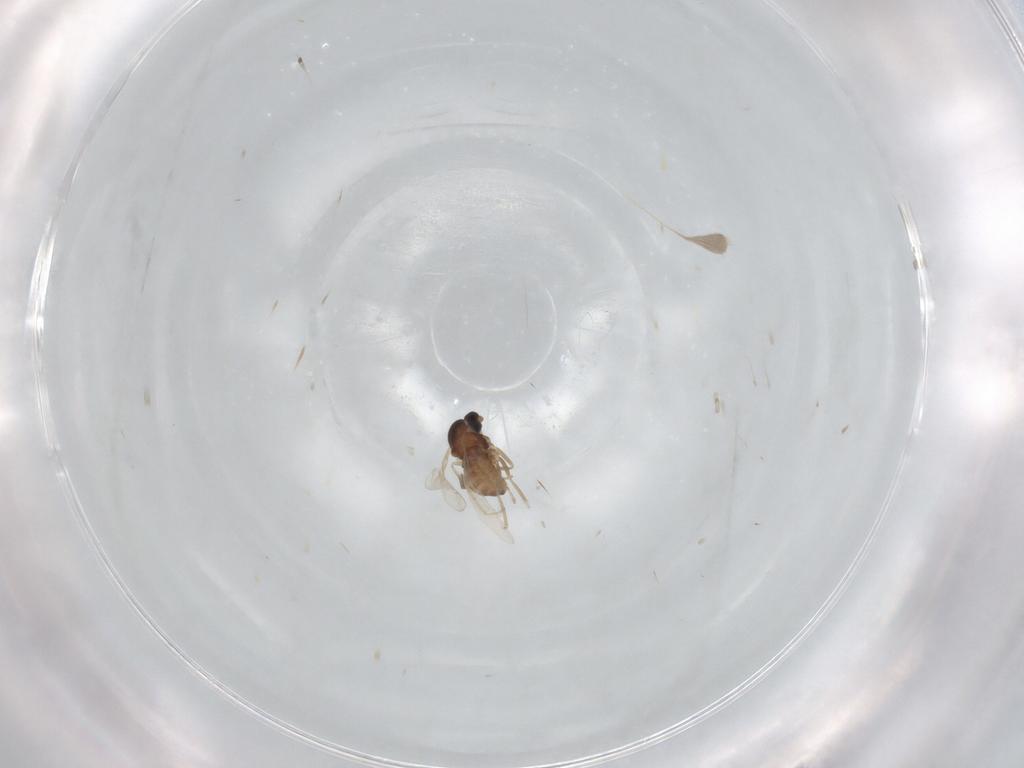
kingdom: Animalia
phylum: Arthropoda
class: Insecta
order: Diptera
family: Cecidomyiidae
